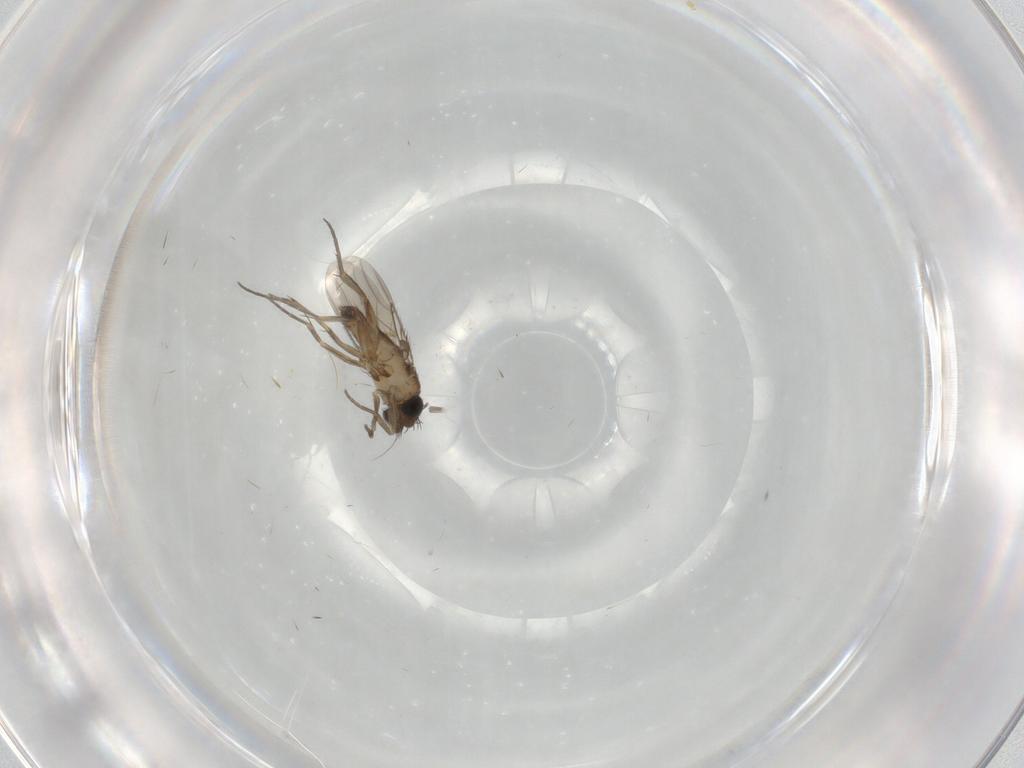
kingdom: Animalia
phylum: Arthropoda
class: Insecta
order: Diptera
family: Phoridae
